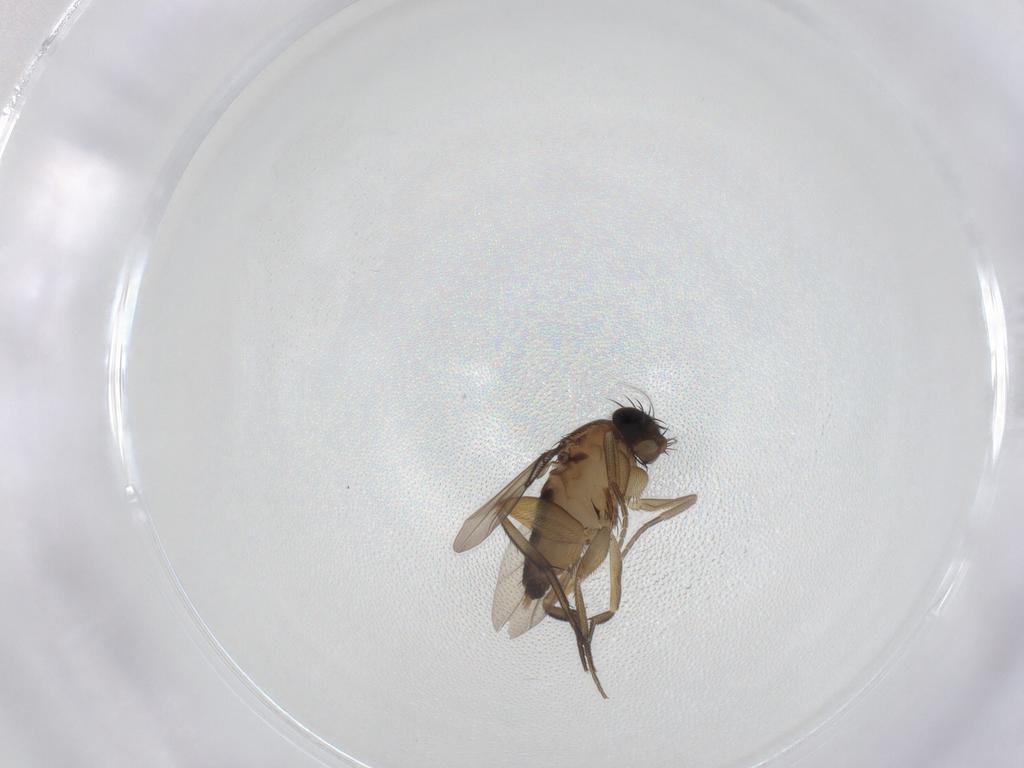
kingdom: Animalia
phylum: Arthropoda
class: Insecta
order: Diptera
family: Phoridae
